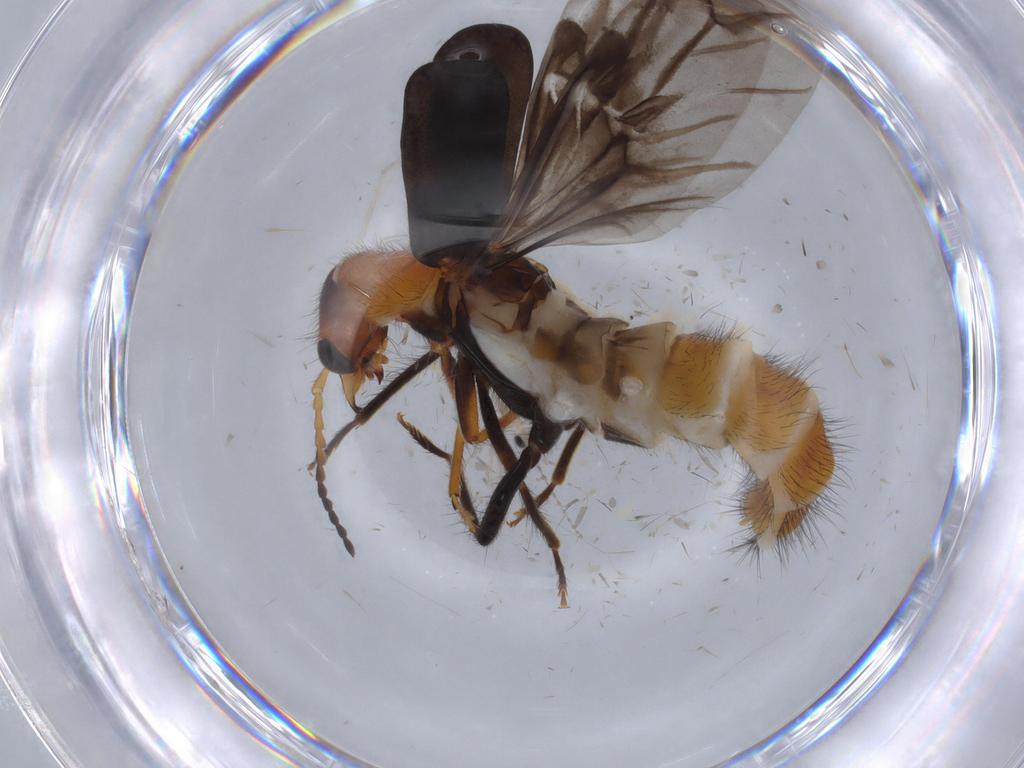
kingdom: Animalia
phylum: Arthropoda
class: Insecta
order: Coleoptera
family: Melyridae
